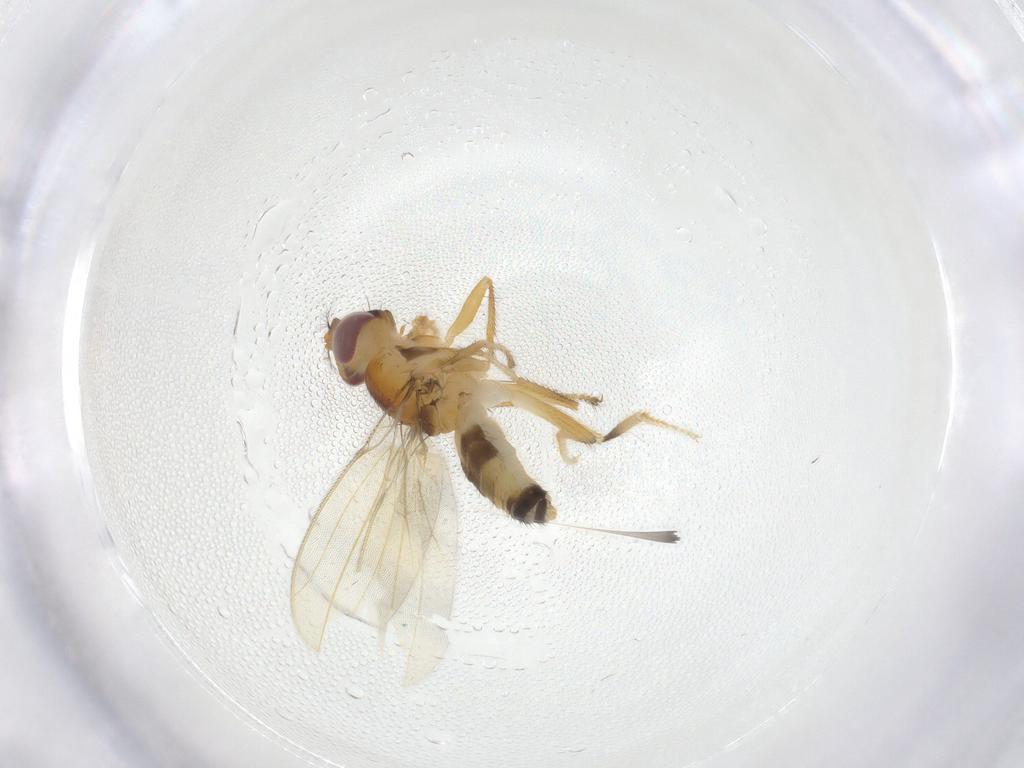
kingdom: Animalia
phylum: Arthropoda
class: Insecta
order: Diptera
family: Periscelididae
